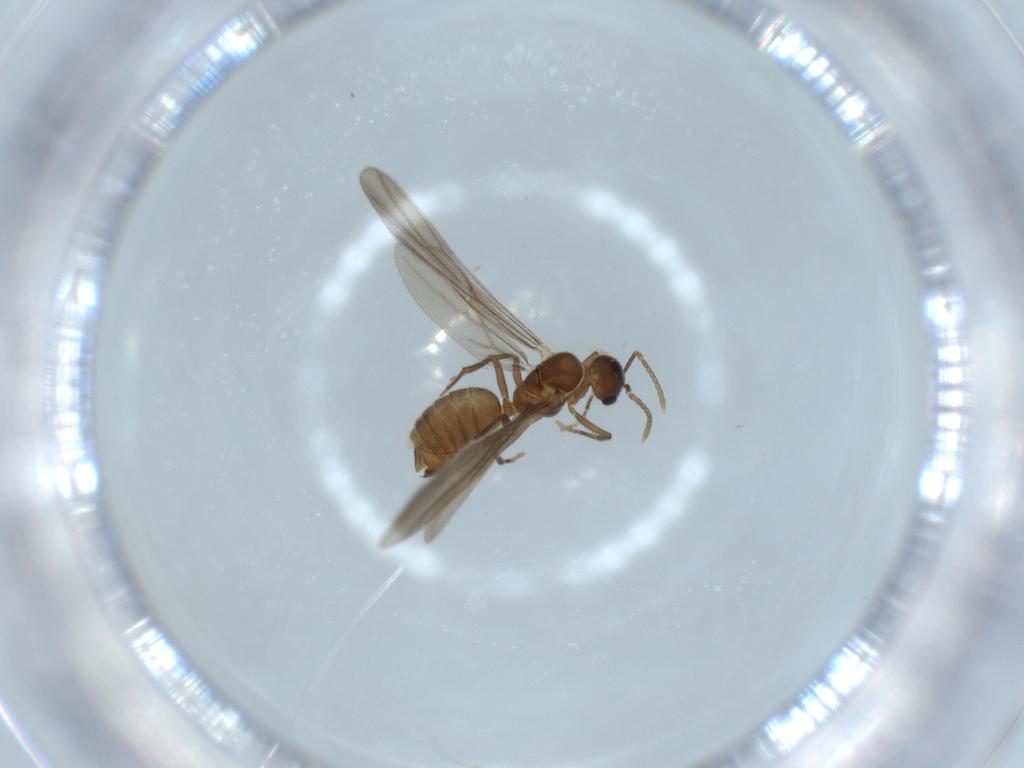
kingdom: Animalia
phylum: Arthropoda
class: Insecta
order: Hymenoptera
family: Formicidae
